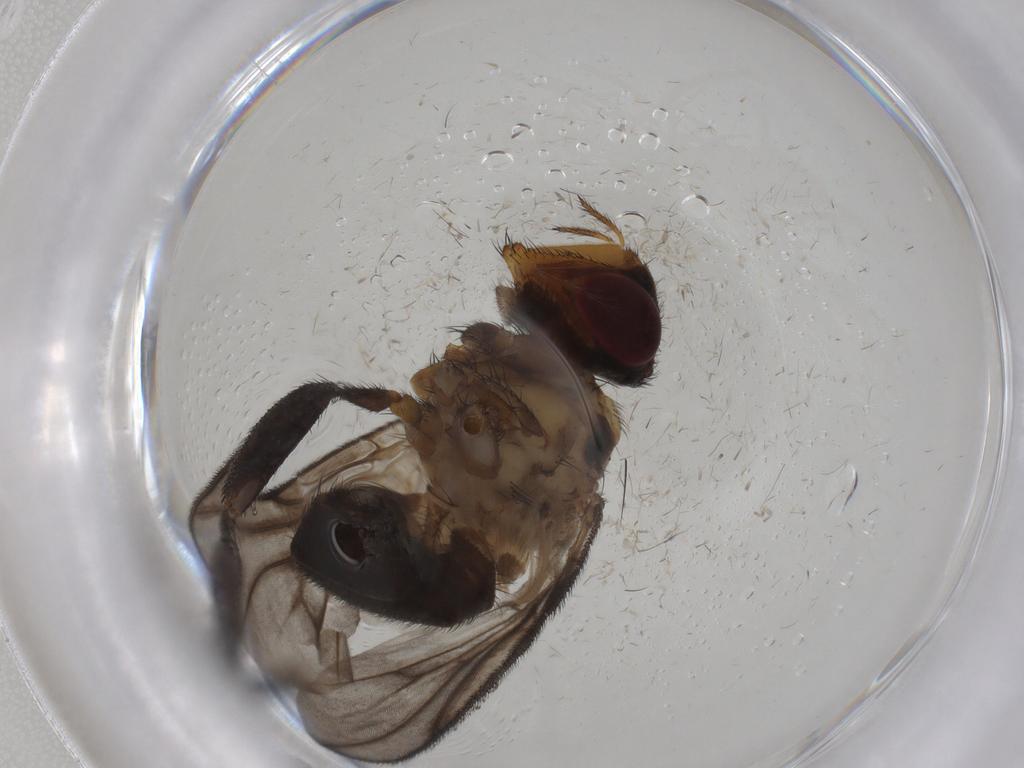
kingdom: Animalia
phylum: Arthropoda
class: Insecta
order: Diptera
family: Calliphoridae
